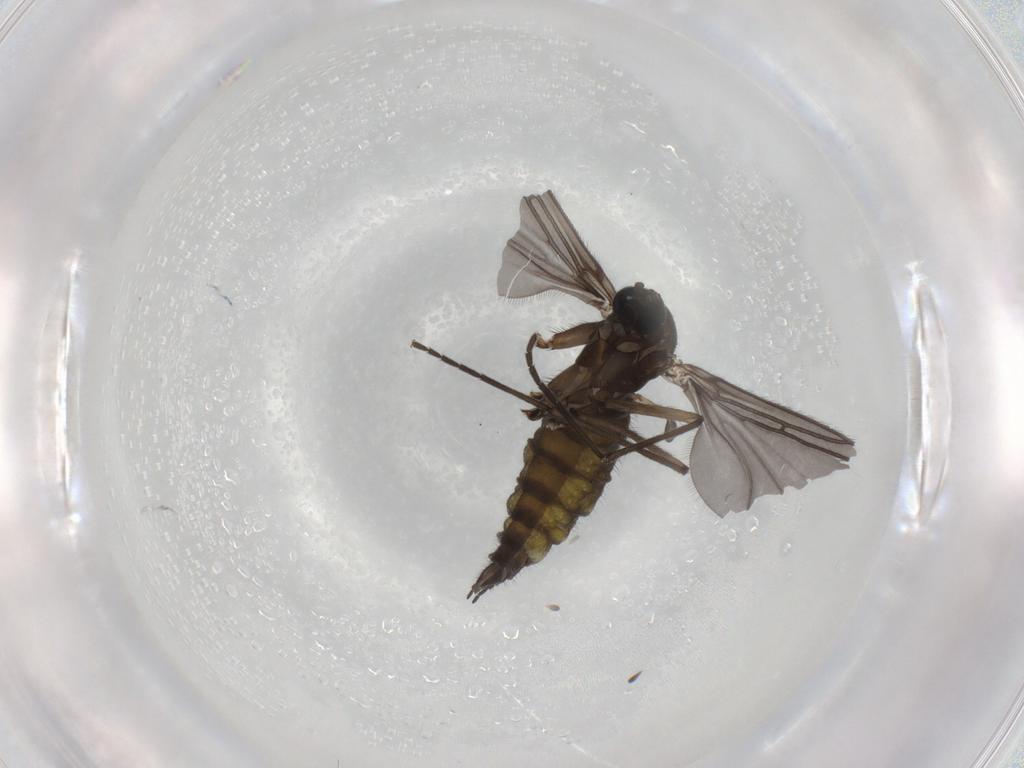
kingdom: Animalia
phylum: Arthropoda
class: Insecta
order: Diptera
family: Sciaridae
